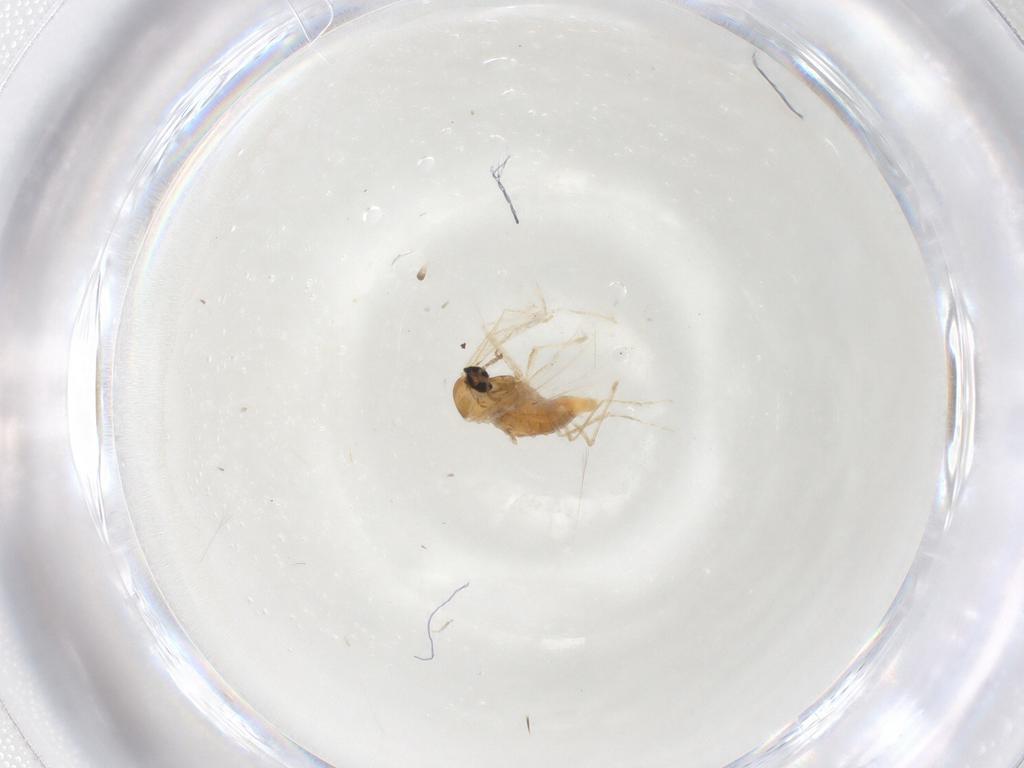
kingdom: Animalia
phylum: Arthropoda
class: Insecta
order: Diptera
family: Cecidomyiidae
